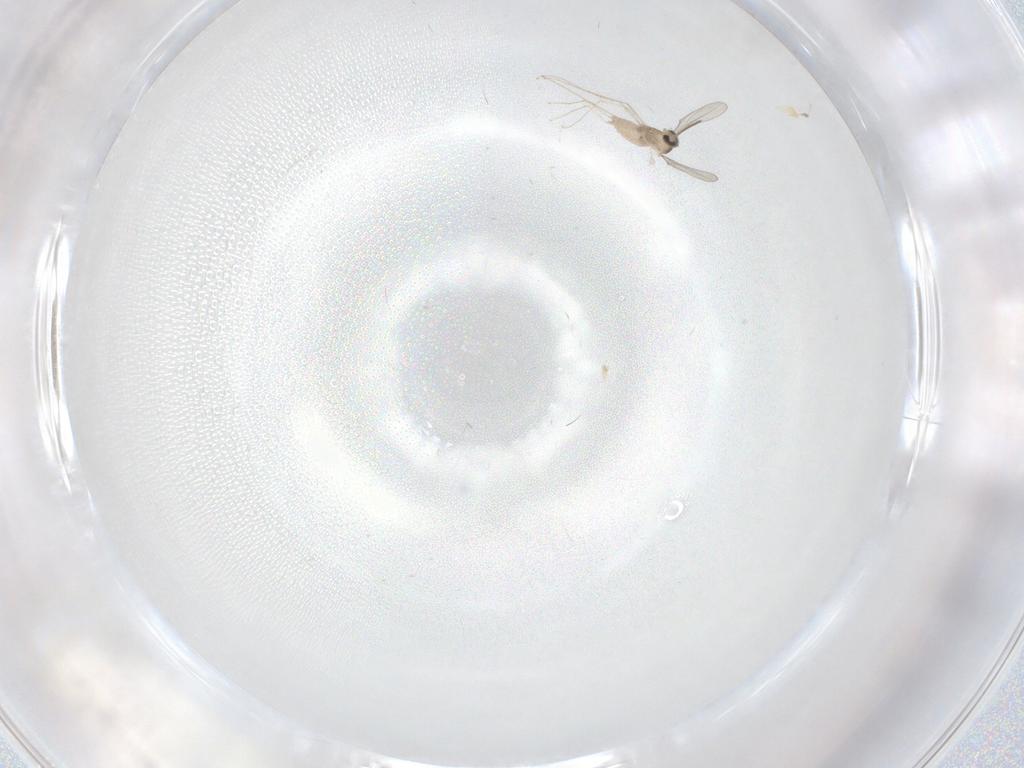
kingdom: Animalia
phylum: Arthropoda
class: Insecta
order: Diptera
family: Cecidomyiidae
